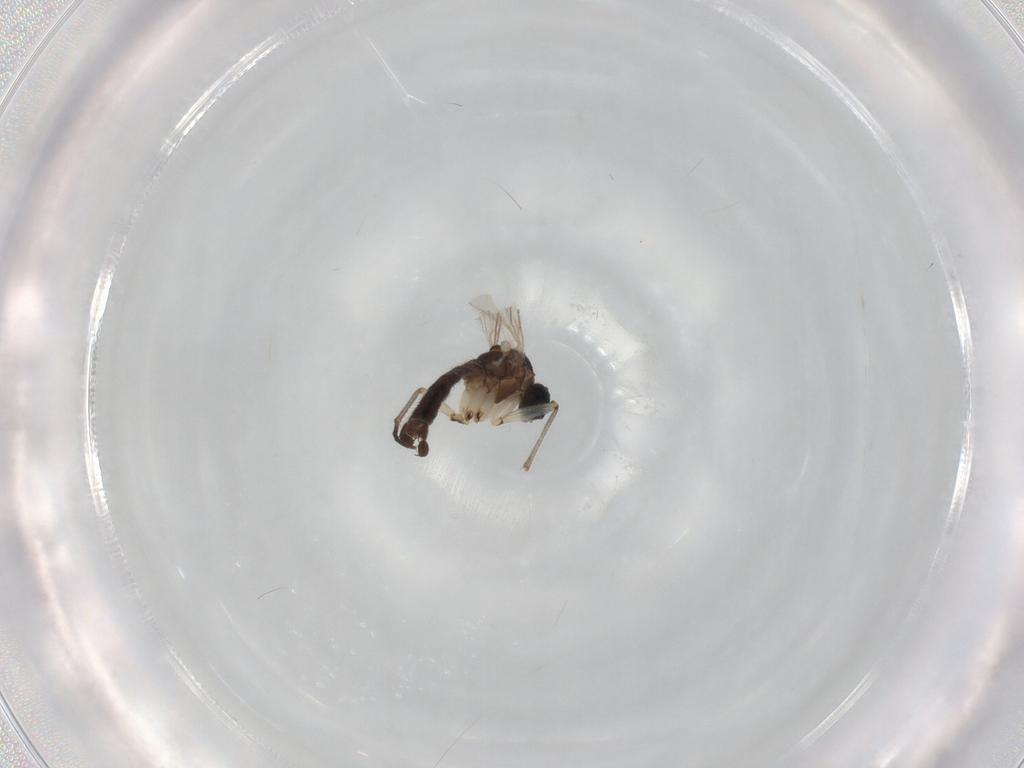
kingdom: Animalia
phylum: Arthropoda
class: Insecta
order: Diptera
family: Sciaridae
